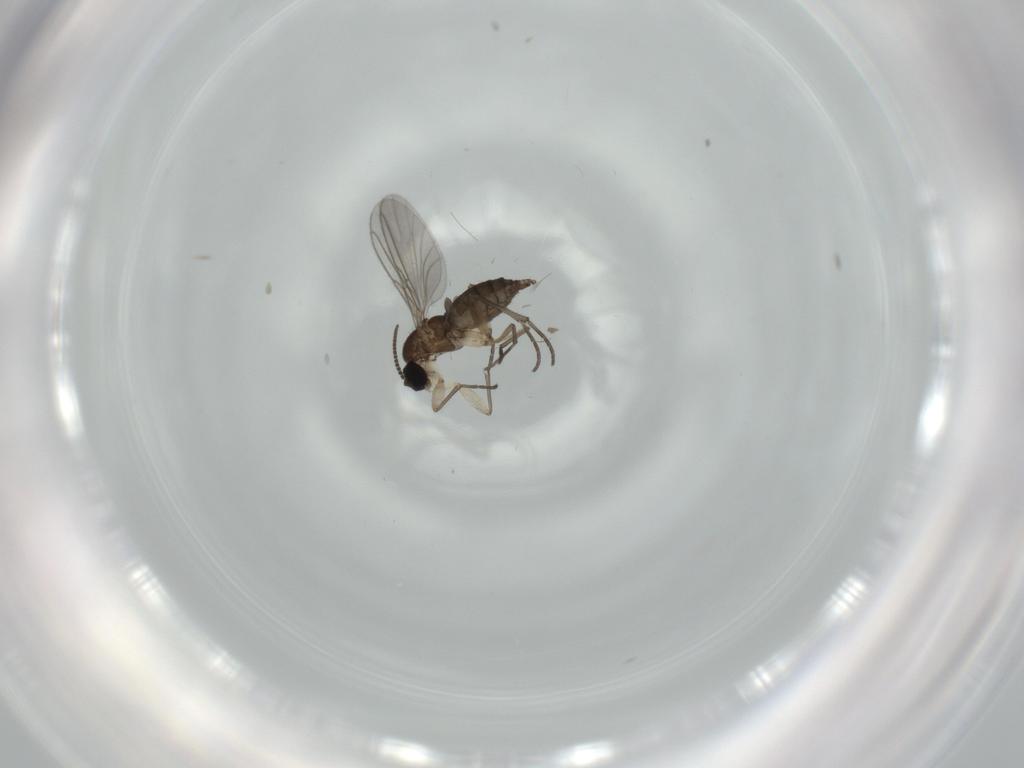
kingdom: Animalia
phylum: Arthropoda
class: Insecta
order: Diptera
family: Sciaridae
